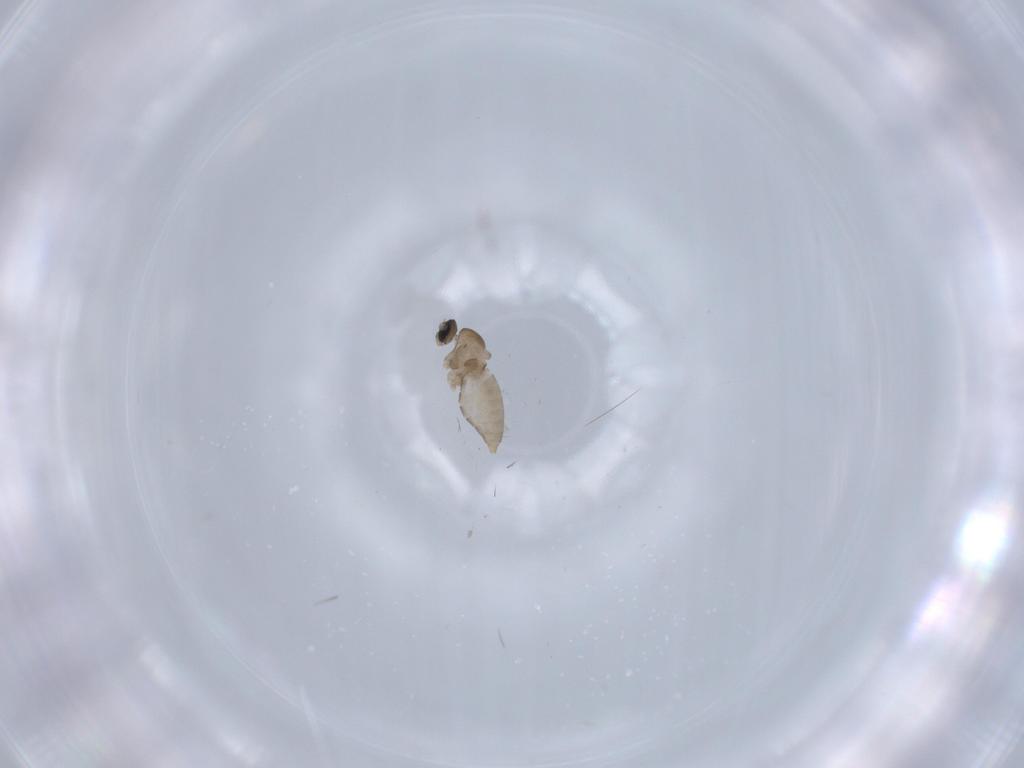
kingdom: Animalia
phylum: Arthropoda
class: Insecta
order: Diptera
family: Cecidomyiidae
